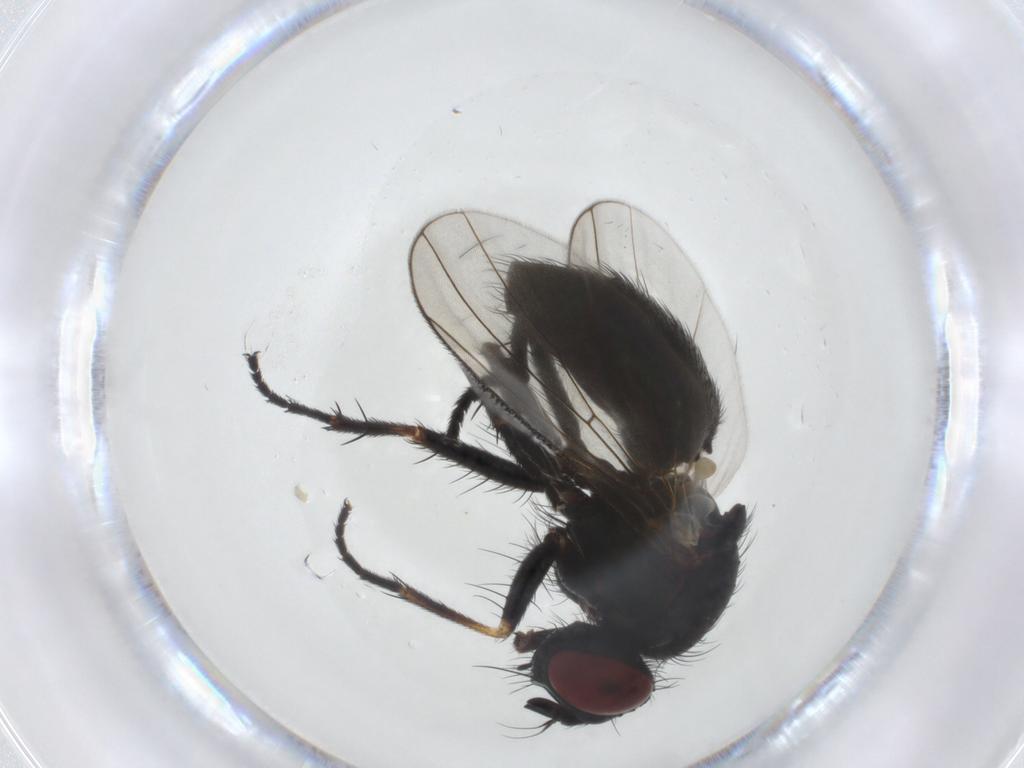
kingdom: Animalia
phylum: Arthropoda
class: Insecta
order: Diptera
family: Muscidae
